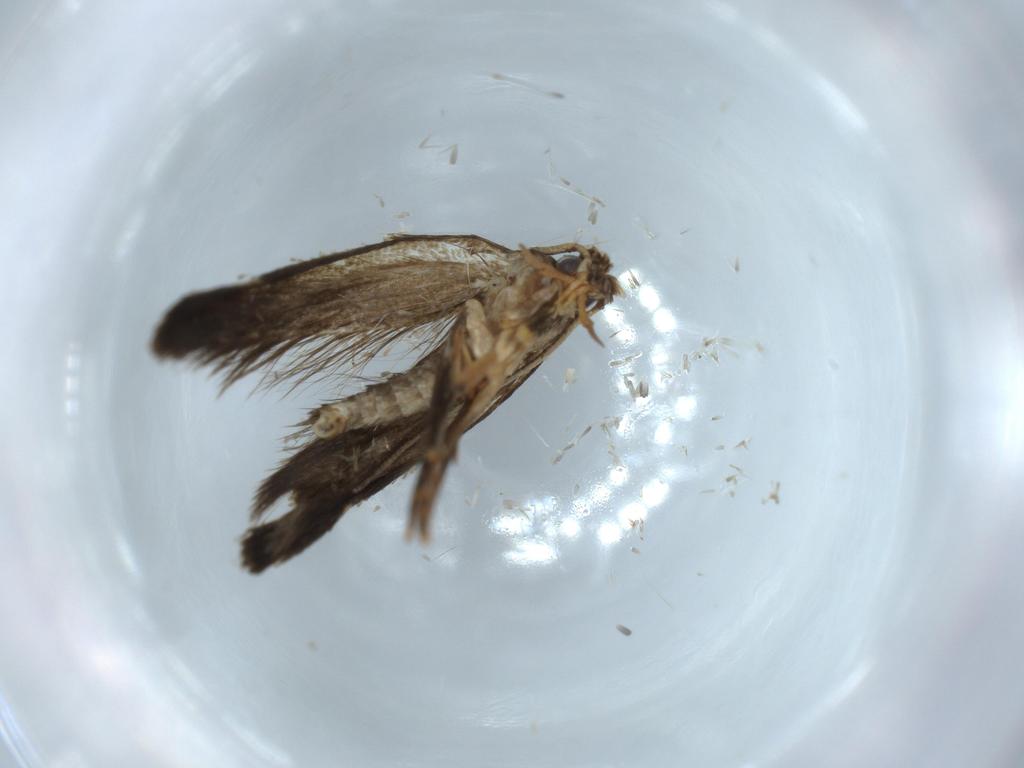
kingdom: Animalia
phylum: Arthropoda
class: Insecta
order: Lepidoptera
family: Tineidae
